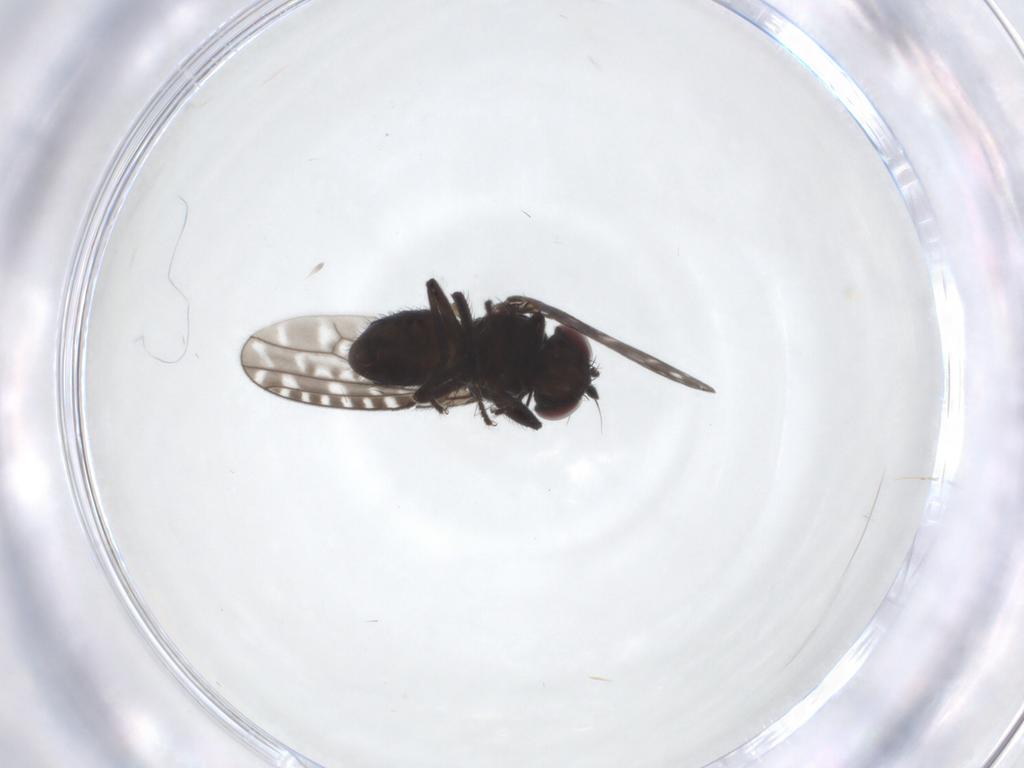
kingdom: Animalia
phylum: Arthropoda
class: Insecta
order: Diptera
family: Ephydridae
